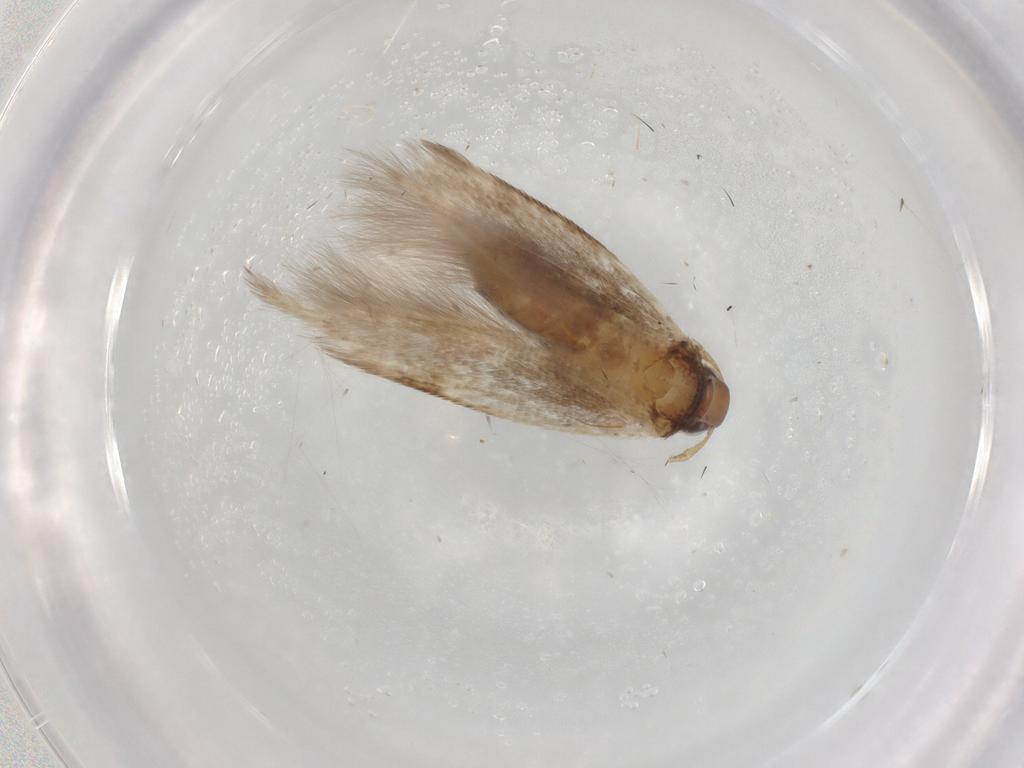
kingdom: Animalia
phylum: Arthropoda
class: Insecta
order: Lepidoptera
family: Cosmopterigidae
